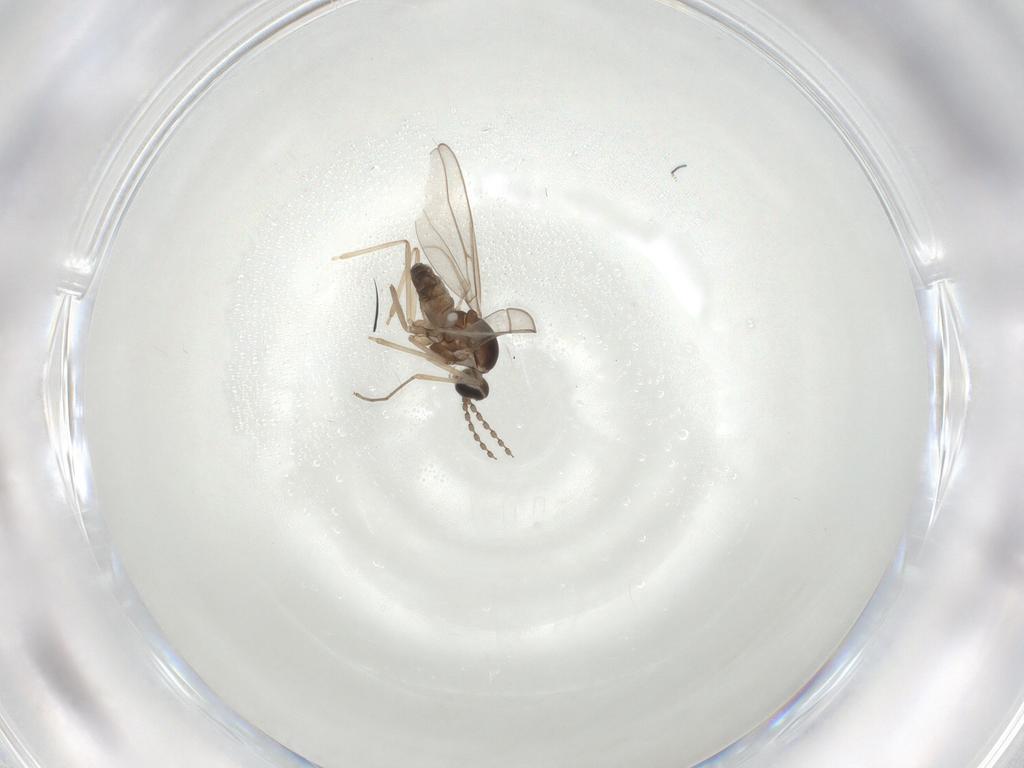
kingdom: Animalia
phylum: Arthropoda
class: Insecta
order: Diptera
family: Cecidomyiidae
